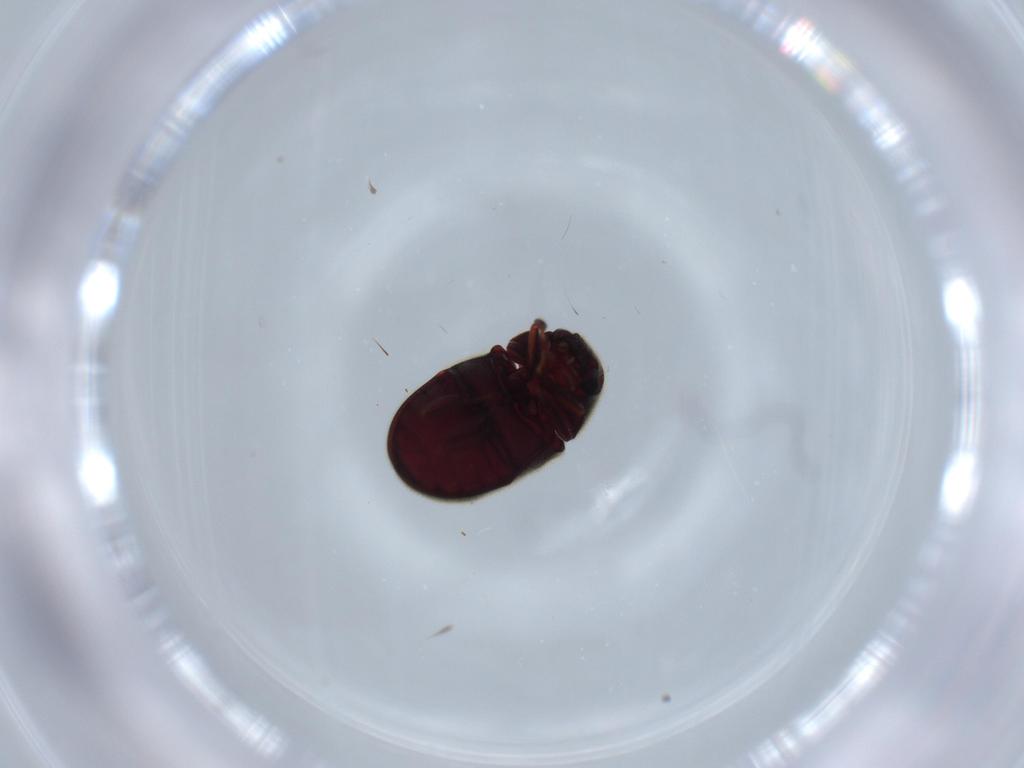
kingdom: Animalia
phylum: Arthropoda
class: Insecta
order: Coleoptera
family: Ptinidae
